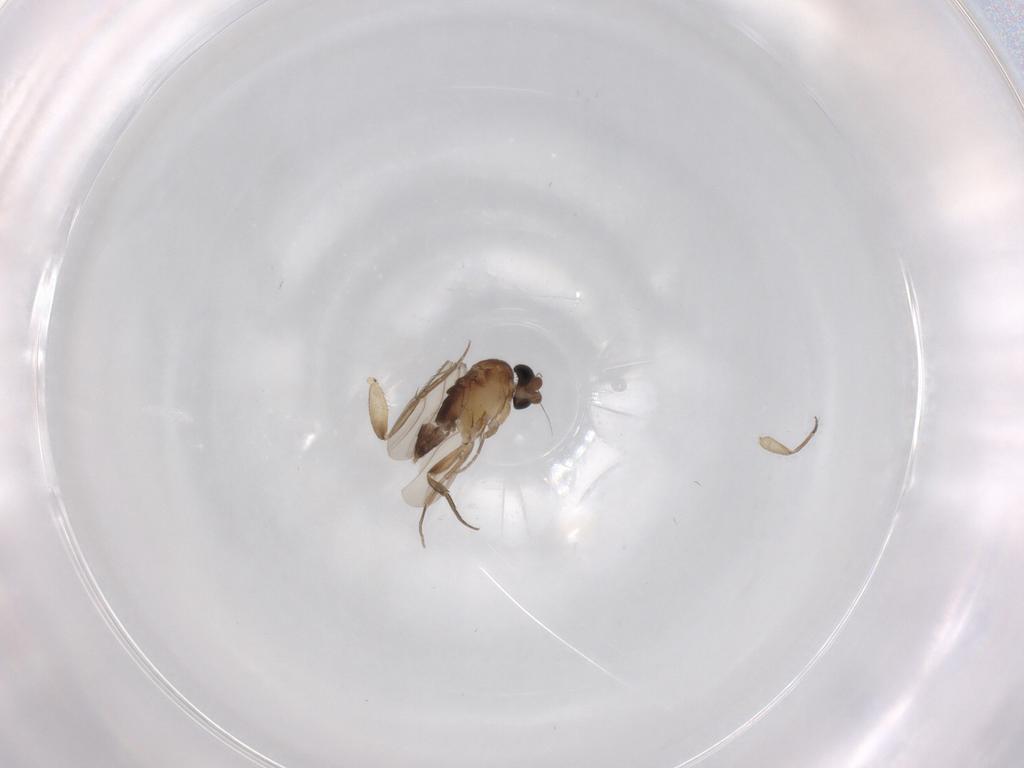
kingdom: Animalia
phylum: Arthropoda
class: Insecta
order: Diptera
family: Phoridae
